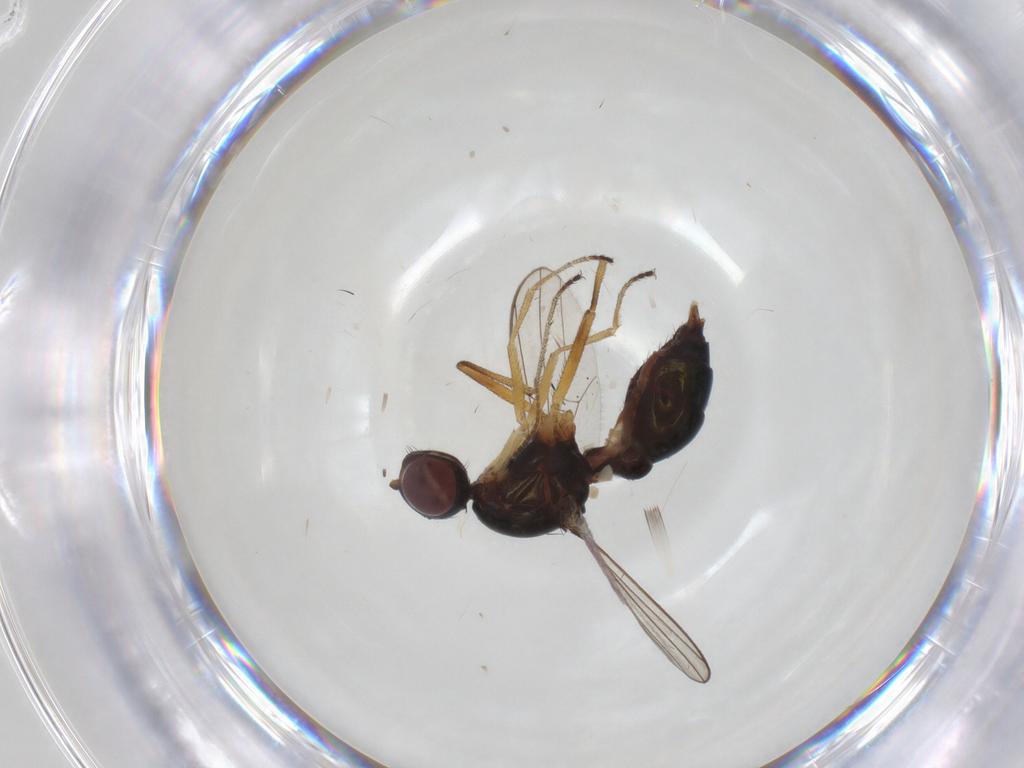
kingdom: Animalia
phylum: Arthropoda
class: Insecta
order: Diptera
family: Sepsidae
